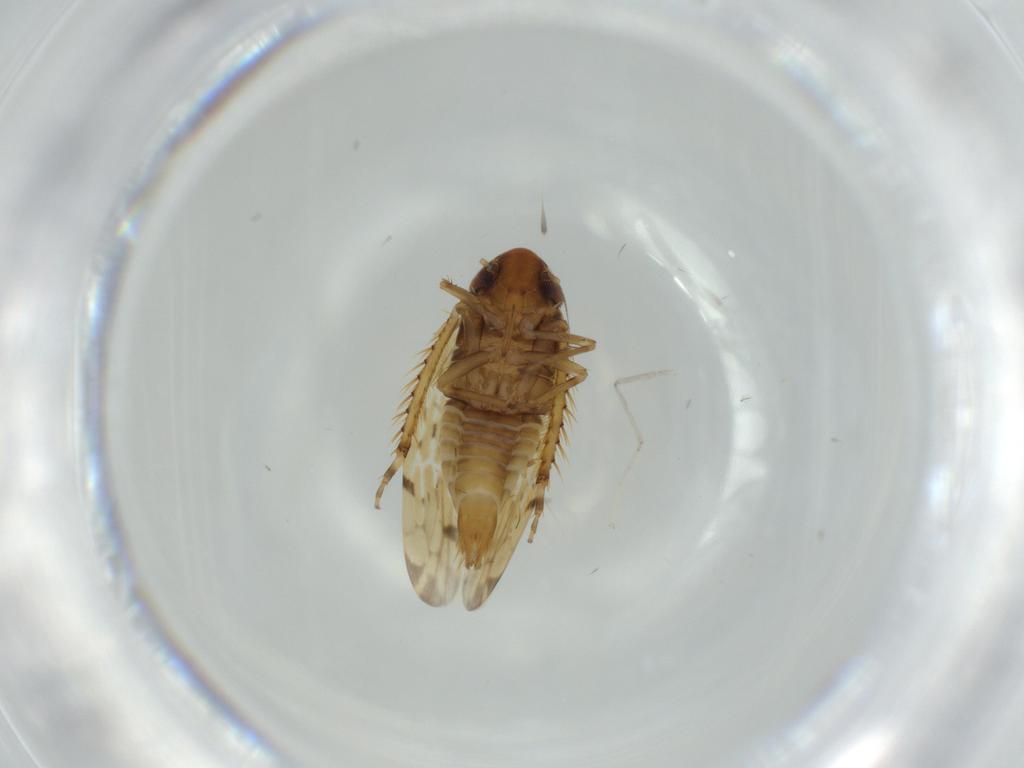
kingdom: Animalia
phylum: Arthropoda
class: Insecta
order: Hemiptera
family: Cicadellidae
